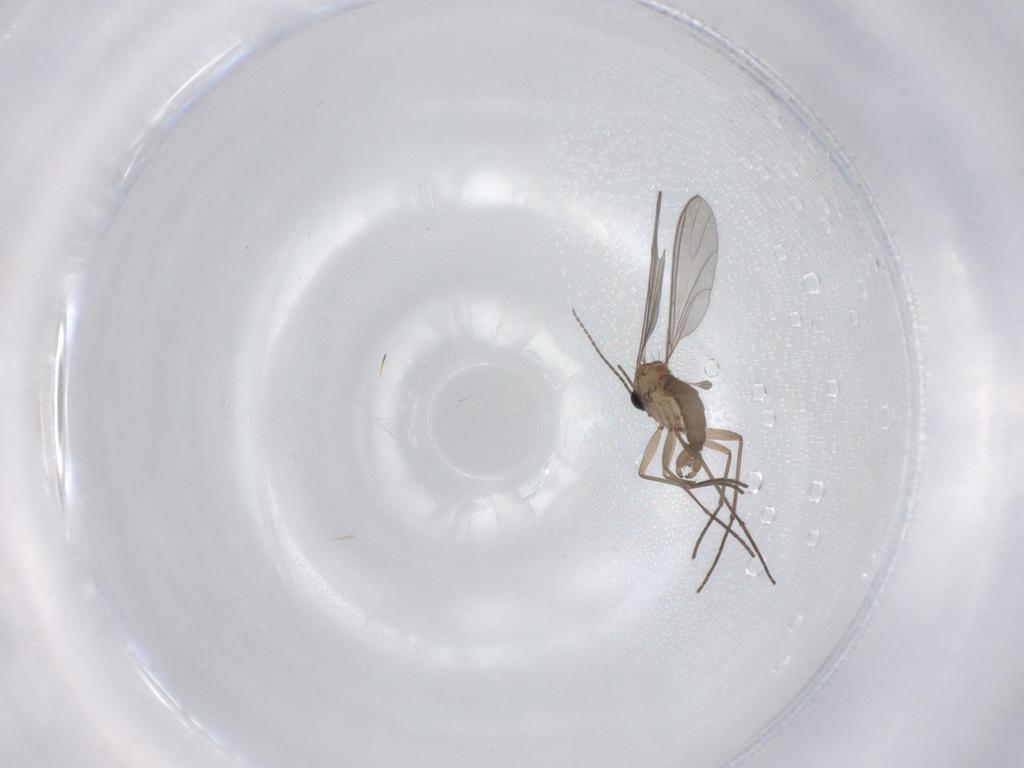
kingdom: Animalia
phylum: Arthropoda
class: Insecta
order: Diptera
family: Sciaridae
